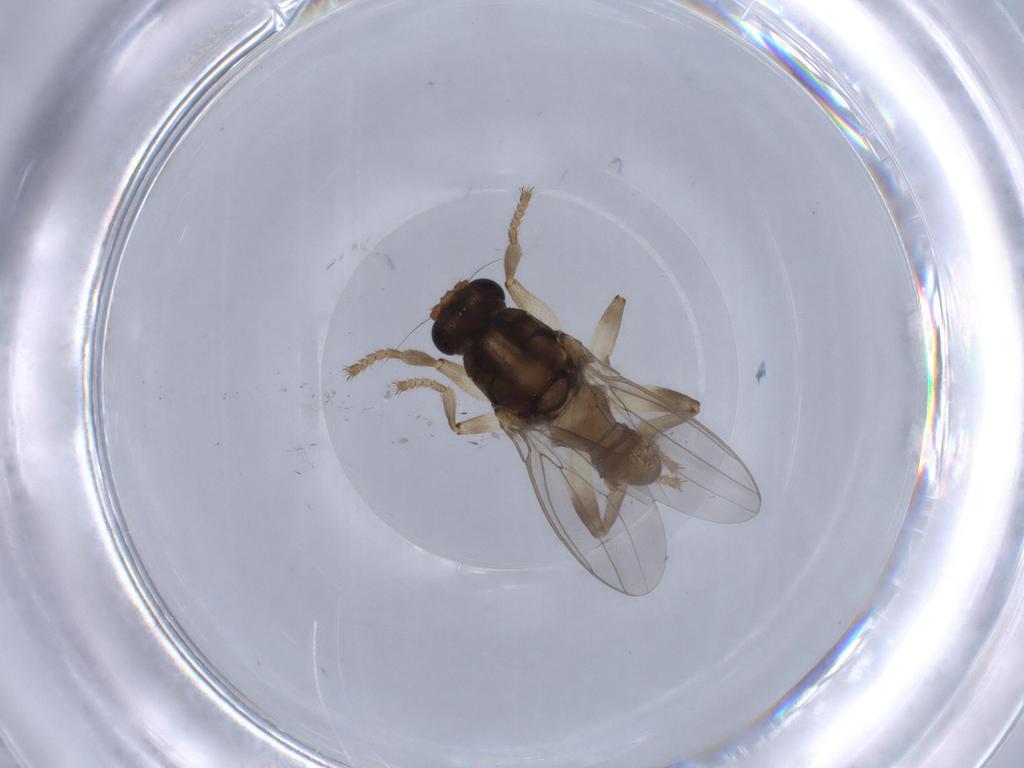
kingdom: Animalia
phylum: Arthropoda
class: Insecta
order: Diptera
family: Sphaeroceridae
